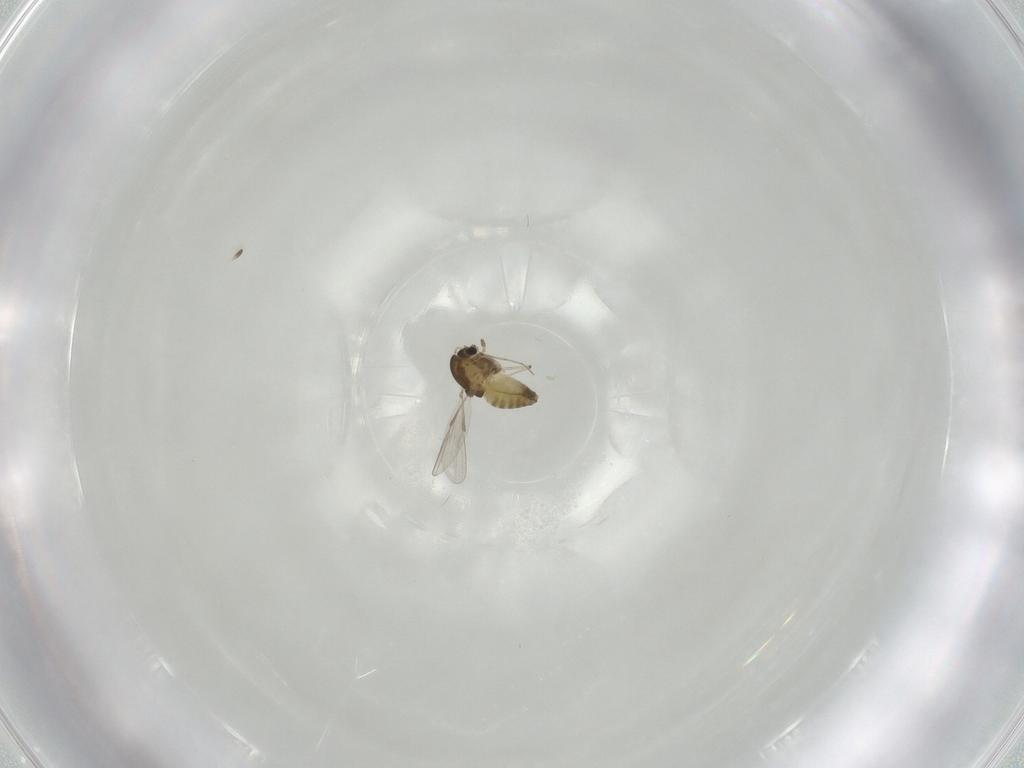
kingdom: Animalia
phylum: Arthropoda
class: Insecta
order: Diptera
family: Chironomidae
